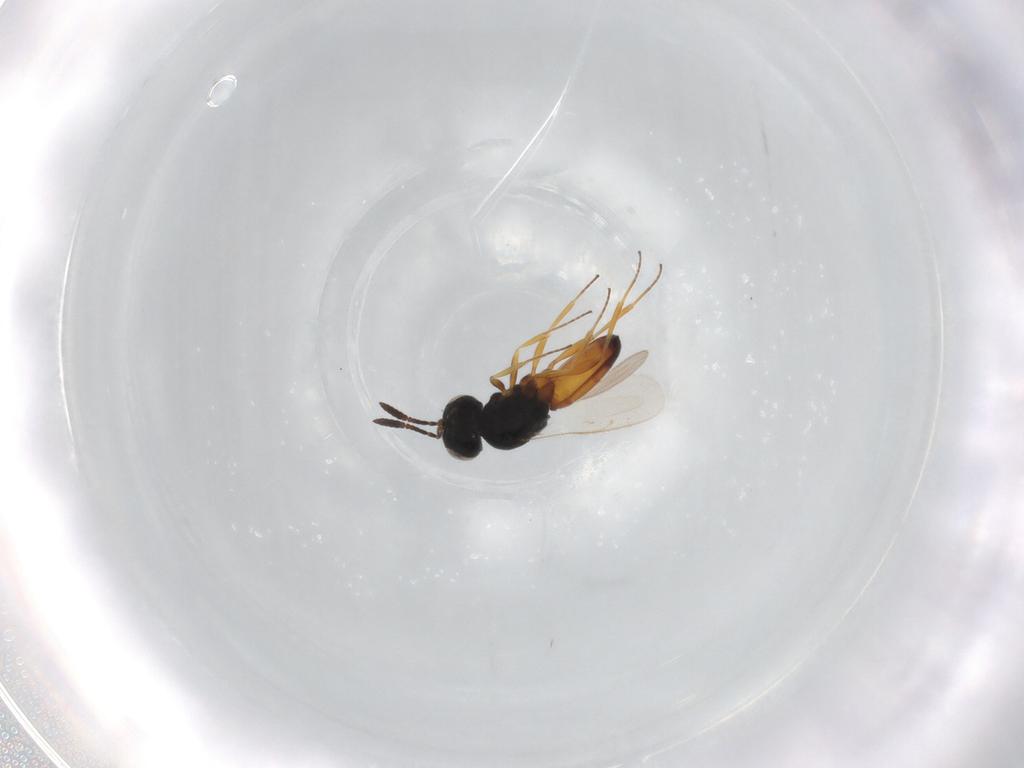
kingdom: Animalia
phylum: Arthropoda
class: Insecta
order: Hymenoptera
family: Scelionidae
